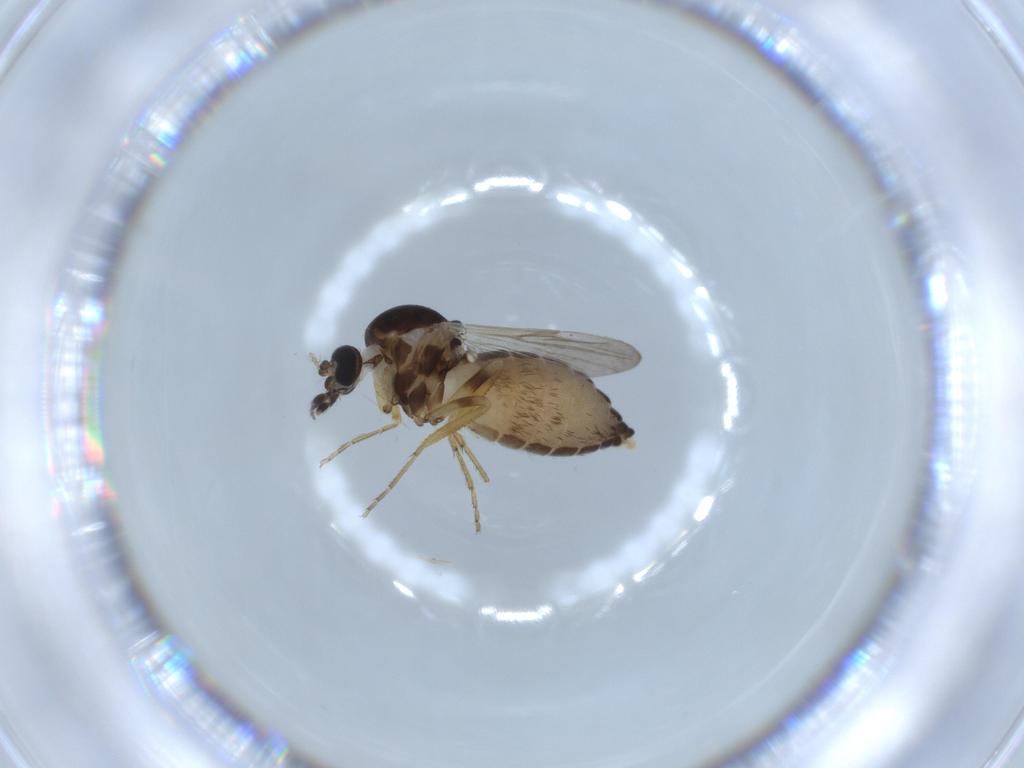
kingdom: Animalia
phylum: Arthropoda
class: Insecta
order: Diptera
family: Ceratopogonidae
